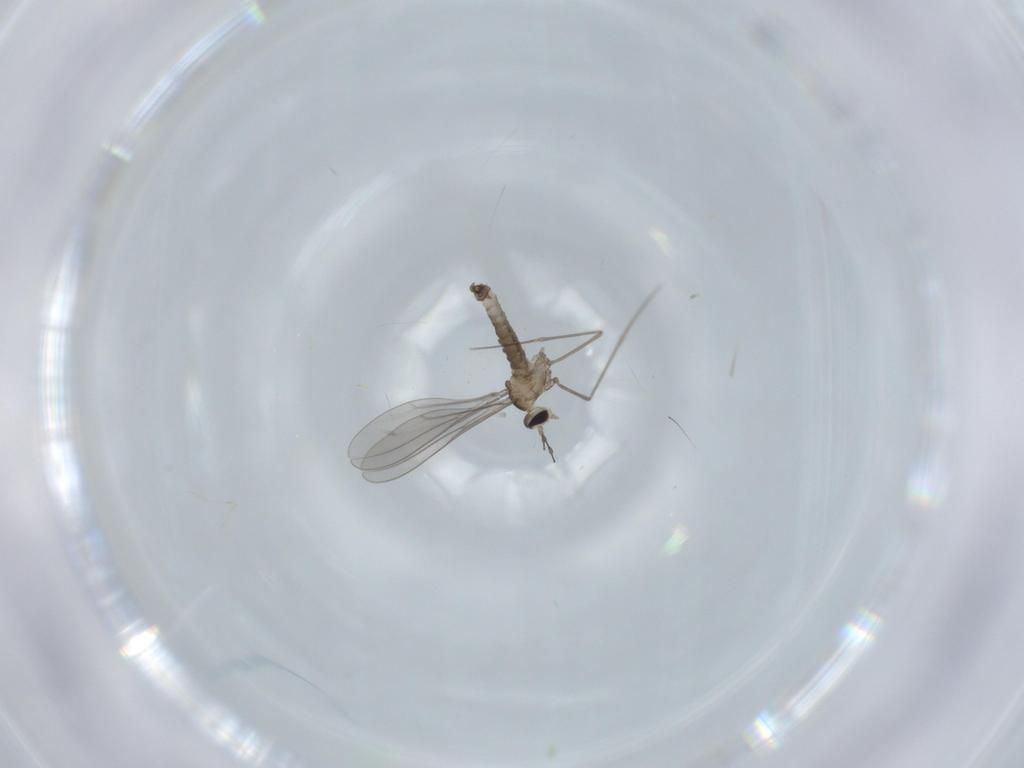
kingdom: Animalia
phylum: Arthropoda
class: Insecta
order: Diptera
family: Cecidomyiidae
